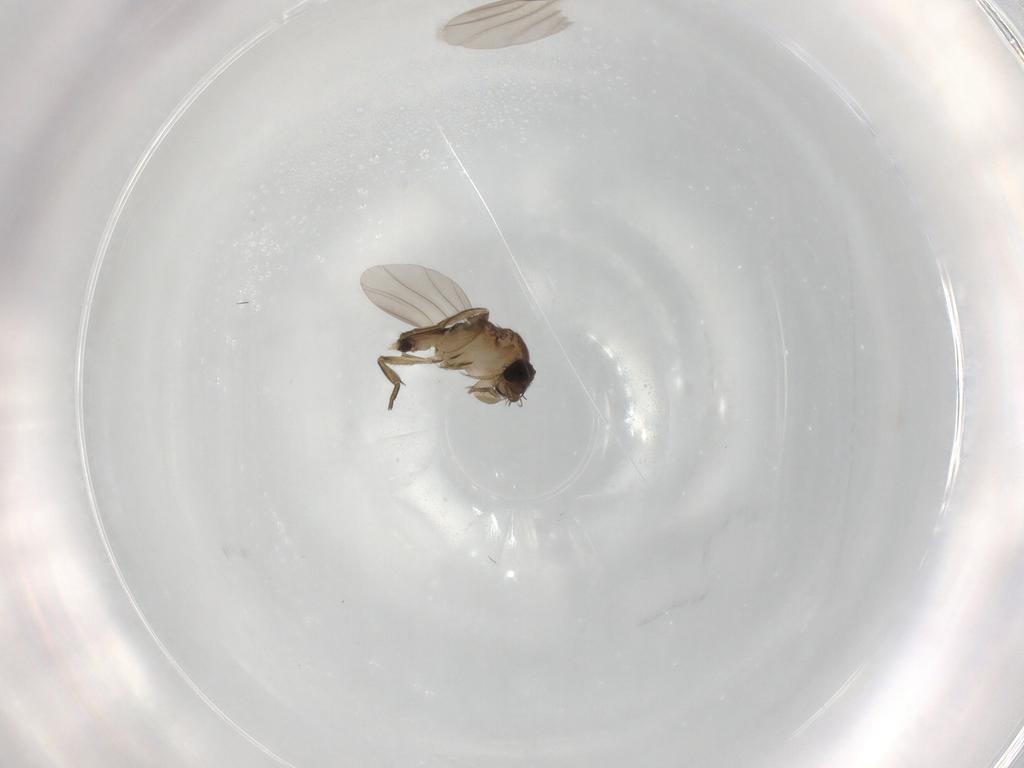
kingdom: Animalia
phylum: Arthropoda
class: Insecta
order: Diptera
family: Phoridae
